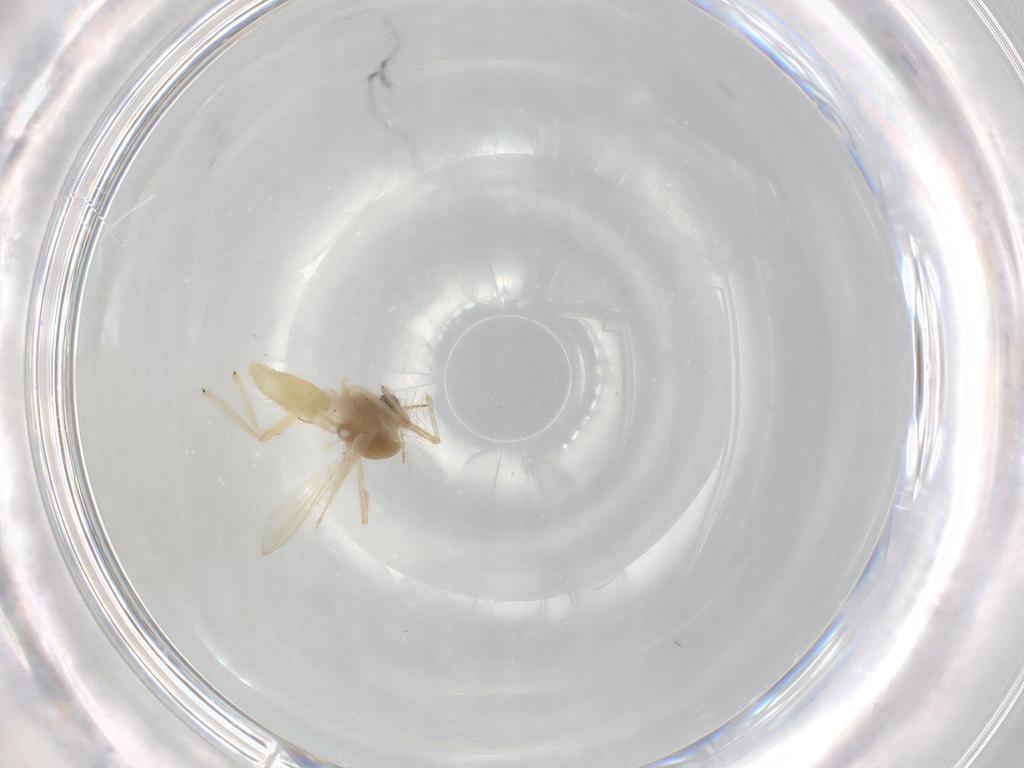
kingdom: Animalia
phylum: Arthropoda
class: Insecta
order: Diptera
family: Chironomidae
